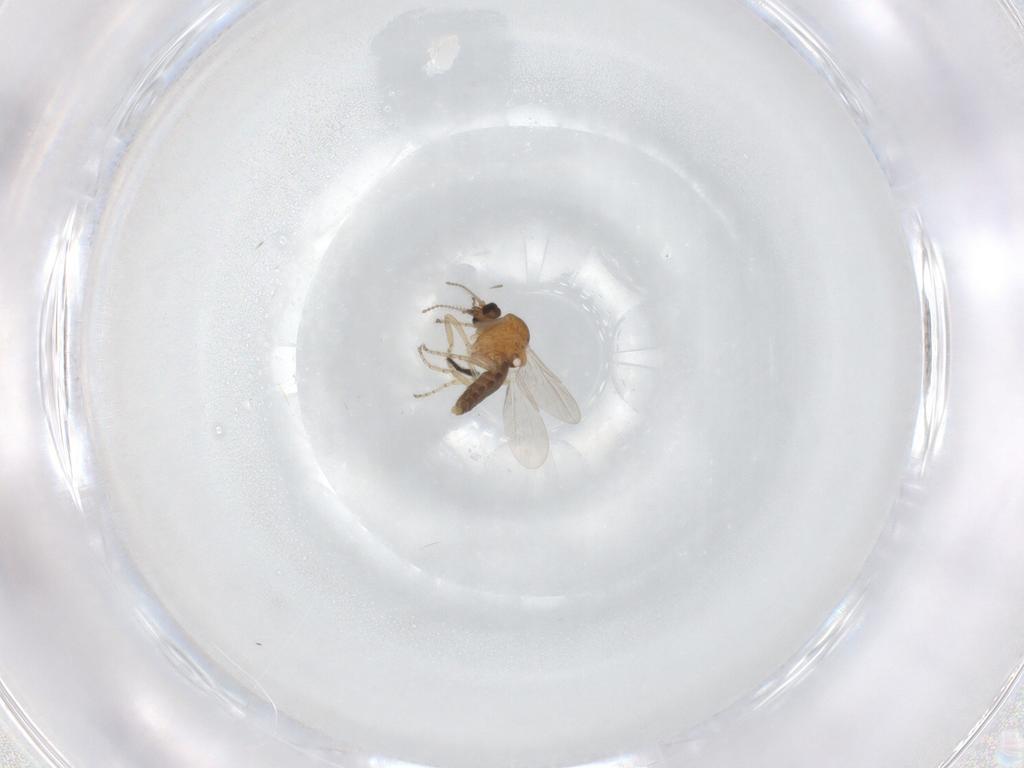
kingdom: Animalia
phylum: Arthropoda
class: Insecta
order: Diptera
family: Ceratopogonidae
